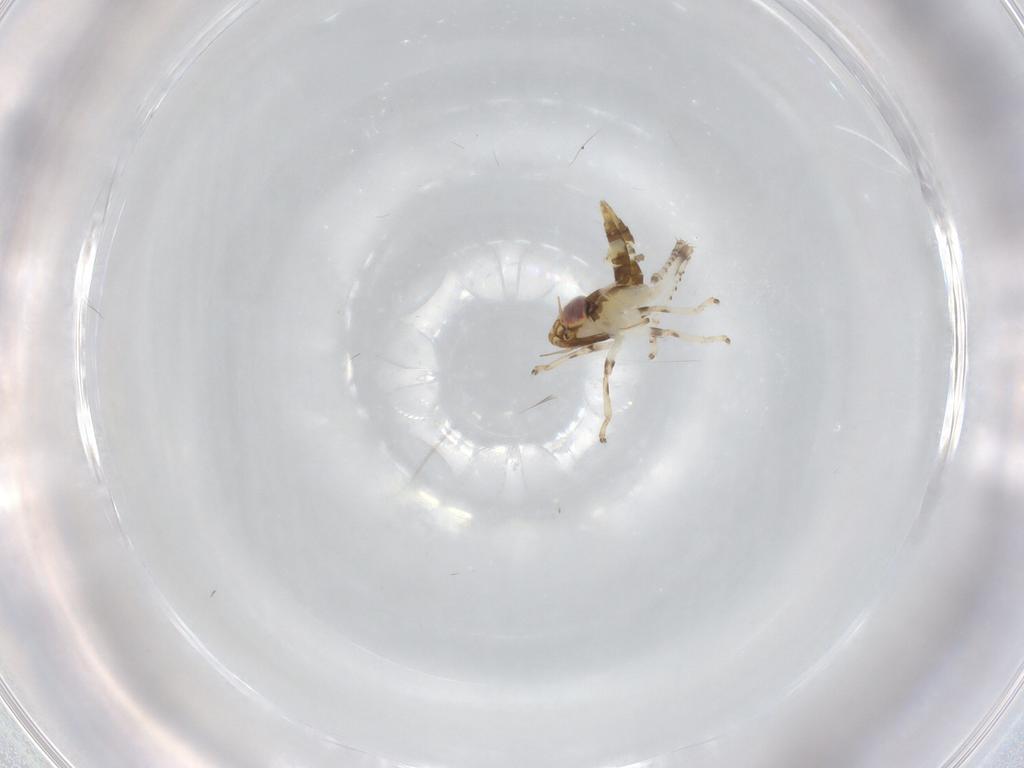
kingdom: Animalia
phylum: Arthropoda
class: Insecta
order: Hemiptera
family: Cicadellidae
